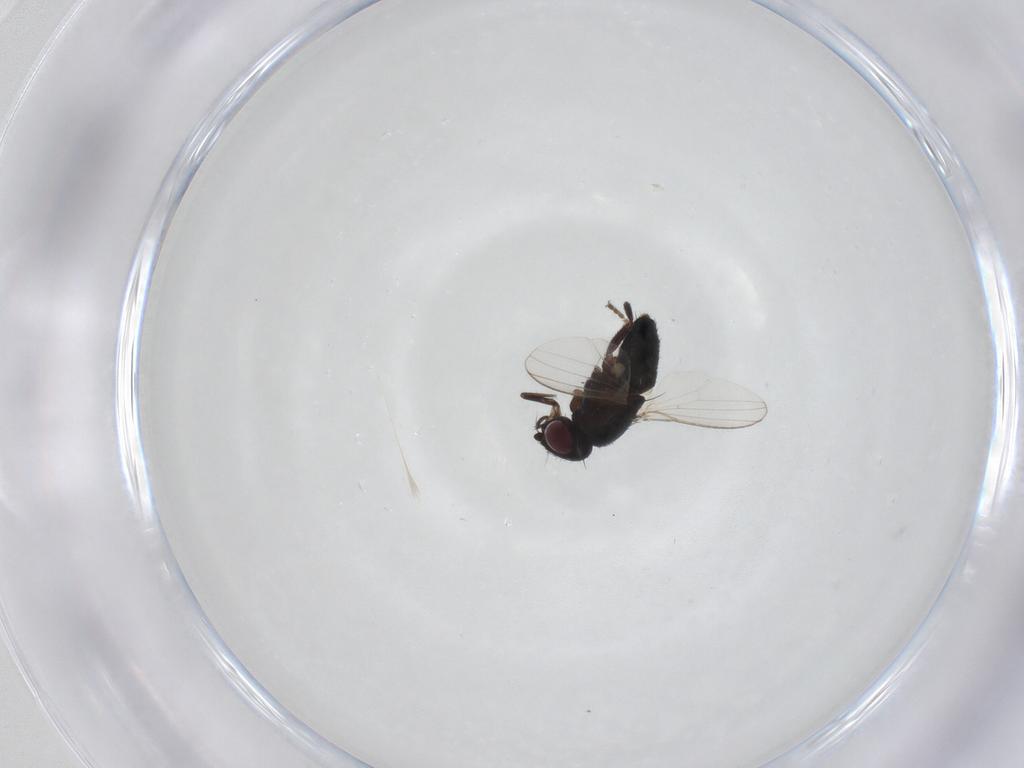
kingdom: Animalia
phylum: Arthropoda
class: Insecta
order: Diptera
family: Milichiidae
